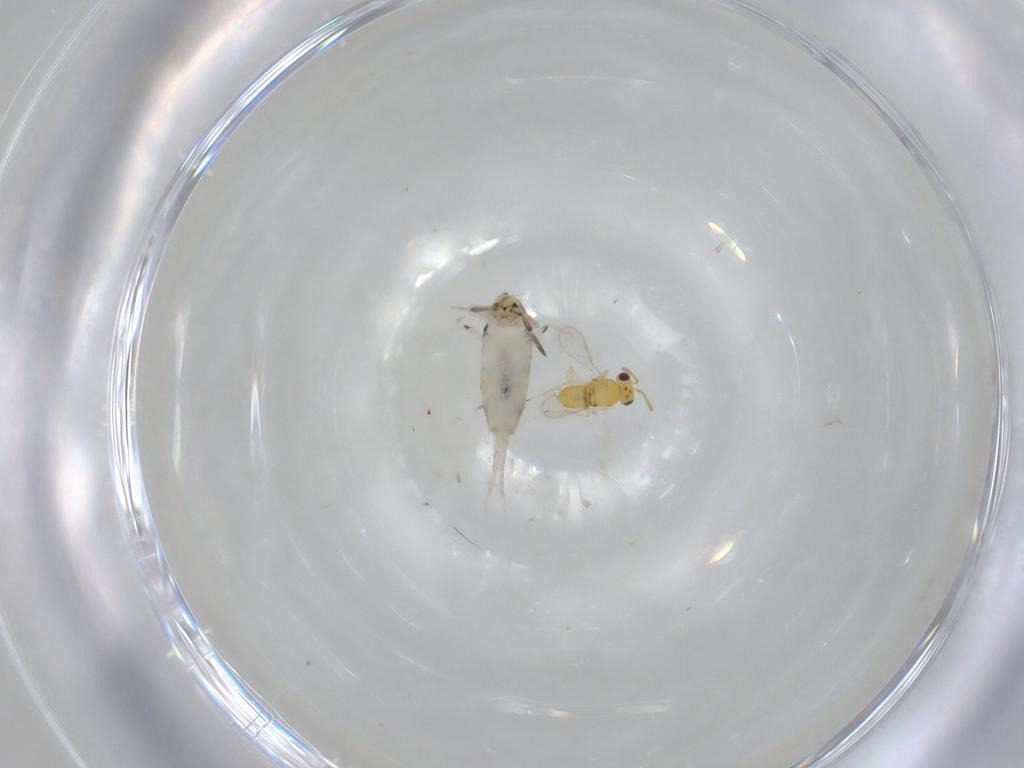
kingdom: Animalia
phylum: Arthropoda
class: Collembola
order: Entomobryomorpha
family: Entomobryidae
